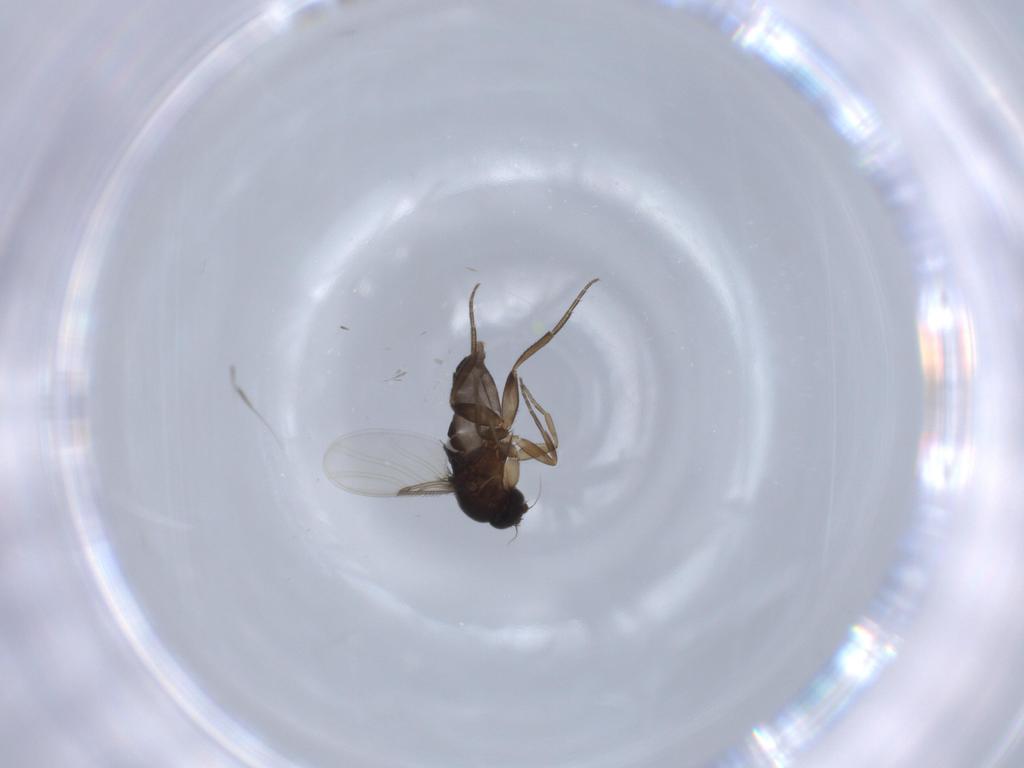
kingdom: Animalia
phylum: Arthropoda
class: Insecta
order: Diptera
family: Phoridae
